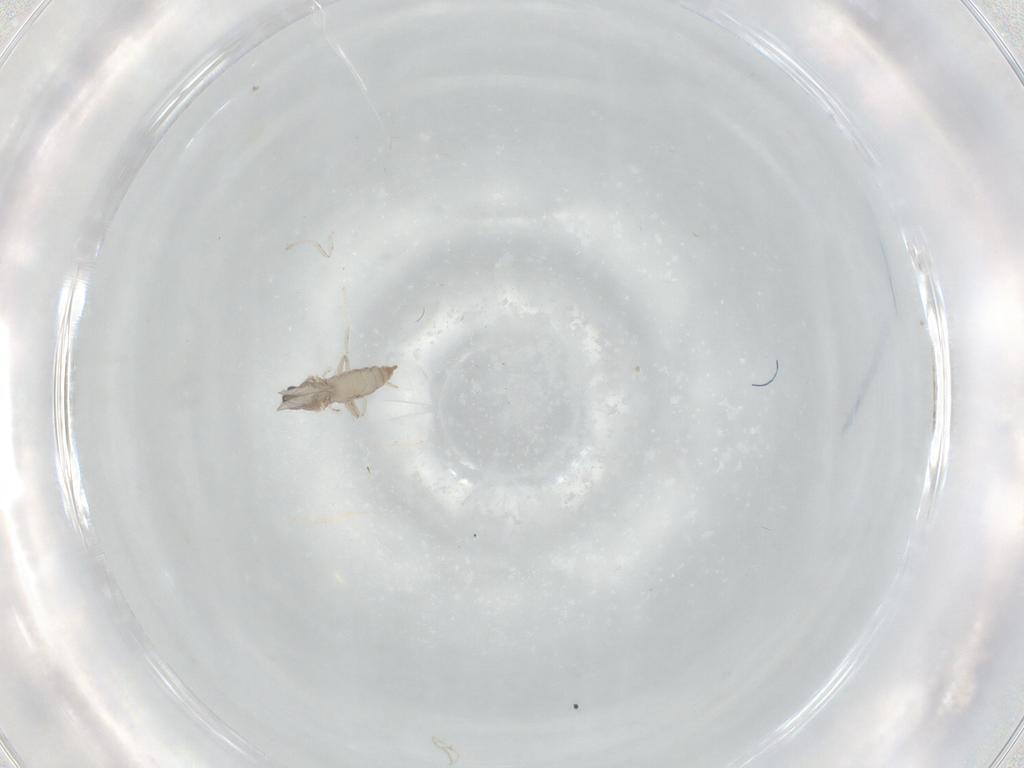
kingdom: Animalia
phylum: Arthropoda
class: Insecta
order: Diptera
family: Cecidomyiidae
